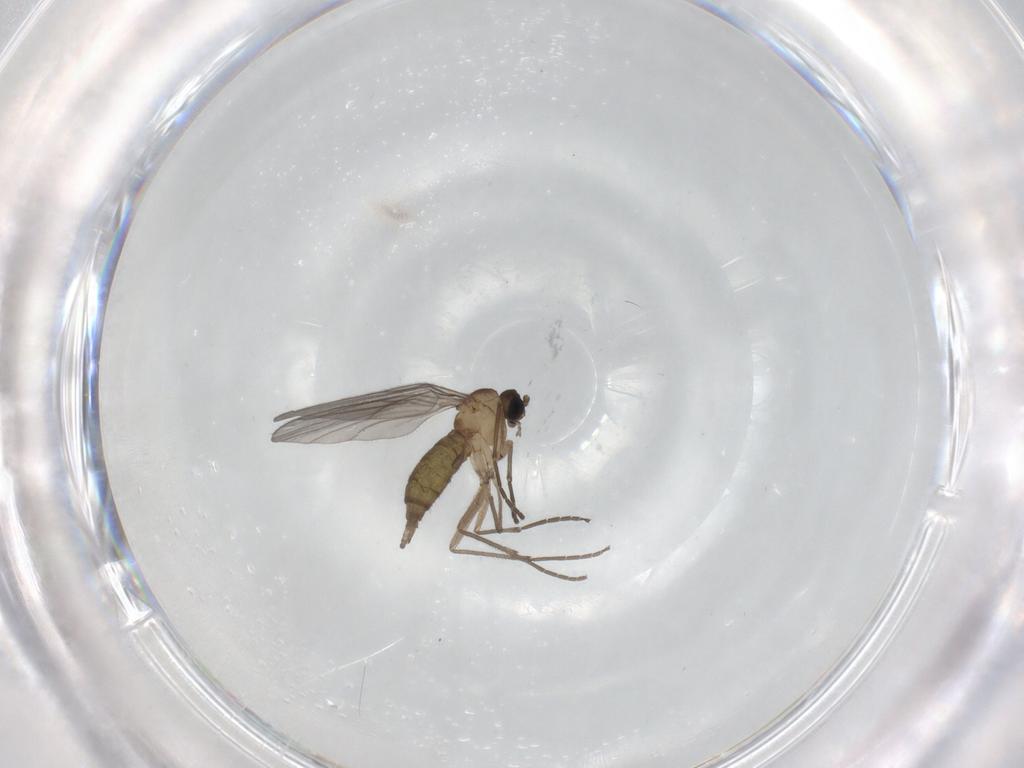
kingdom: Animalia
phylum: Arthropoda
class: Insecta
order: Diptera
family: Sciaridae
